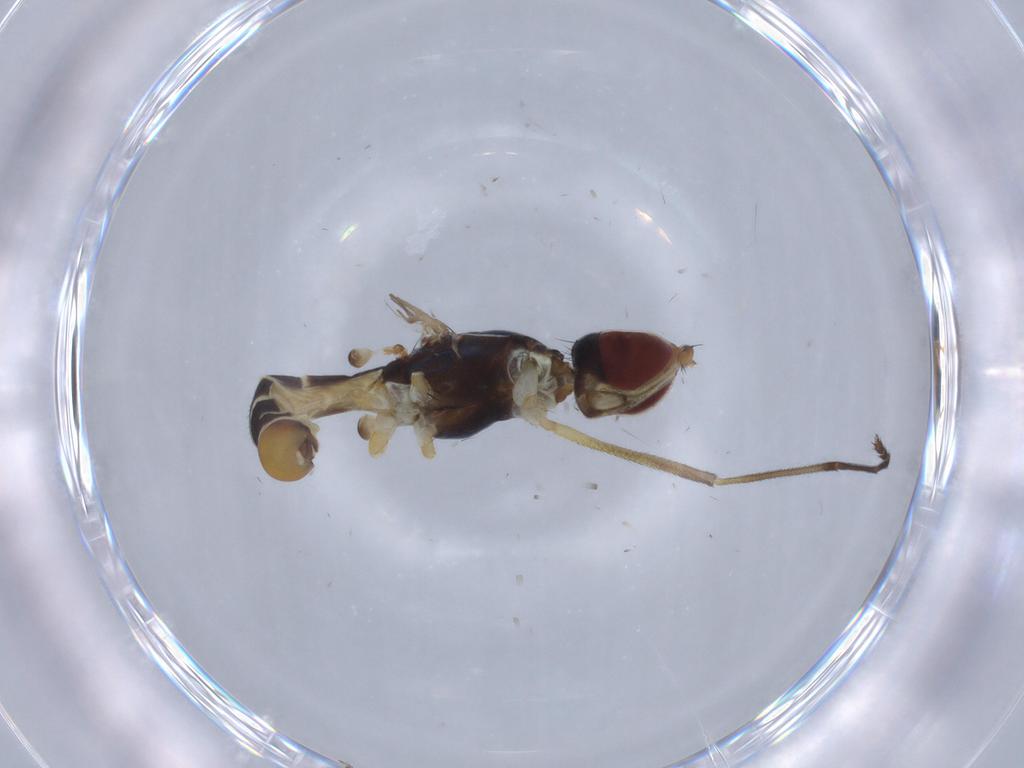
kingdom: Animalia
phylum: Arthropoda
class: Insecta
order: Diptera
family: Micropezidae
